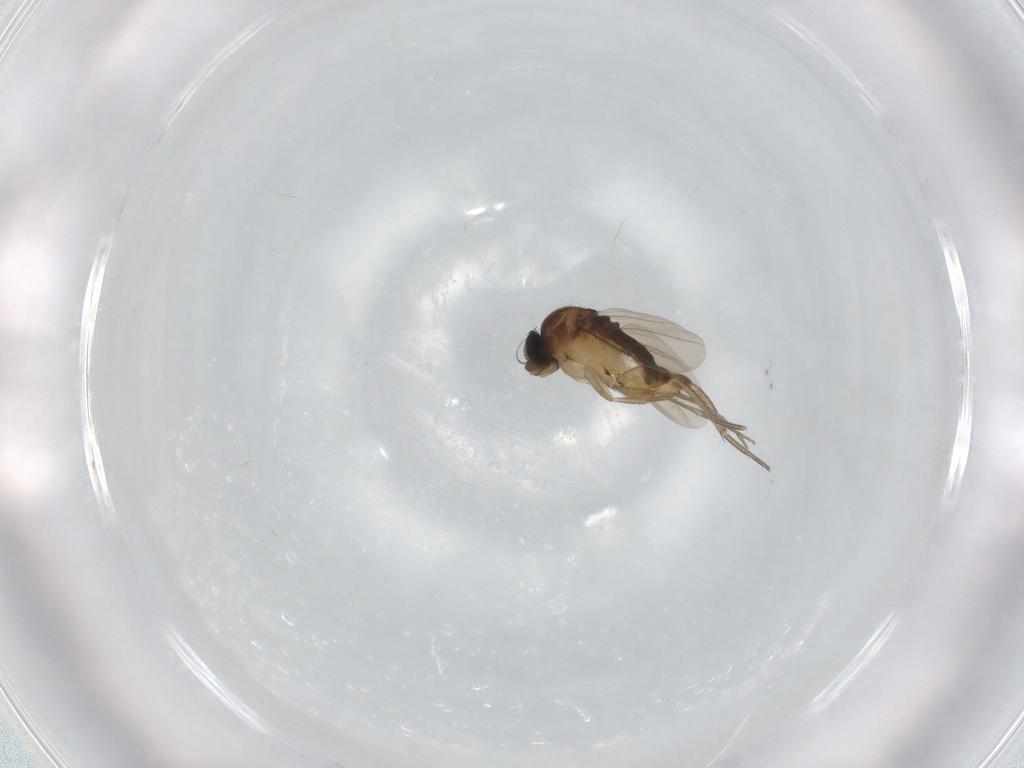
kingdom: Animalia
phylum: Arthropoda
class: Insecta
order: Diptera
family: Phoridae
